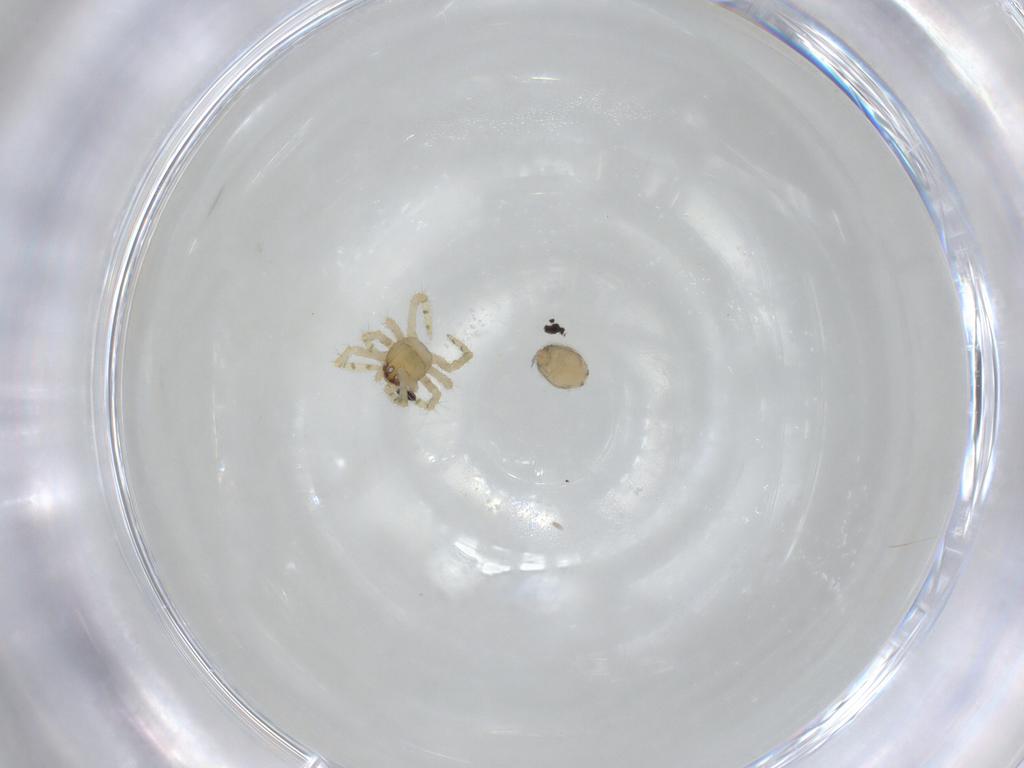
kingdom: Animalia
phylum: Arthropoda
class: Arachnida
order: Araneae
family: Theridiidae
